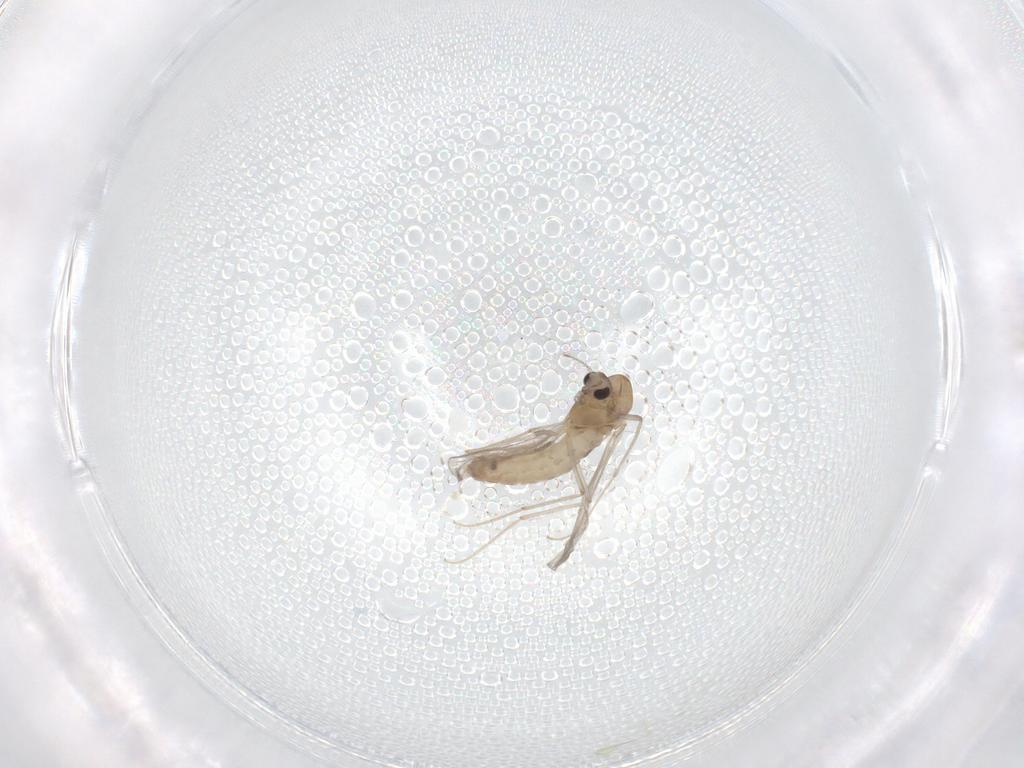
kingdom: Animalia
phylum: Arthropoda
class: Insecta
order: Diptera
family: Chironomidae
